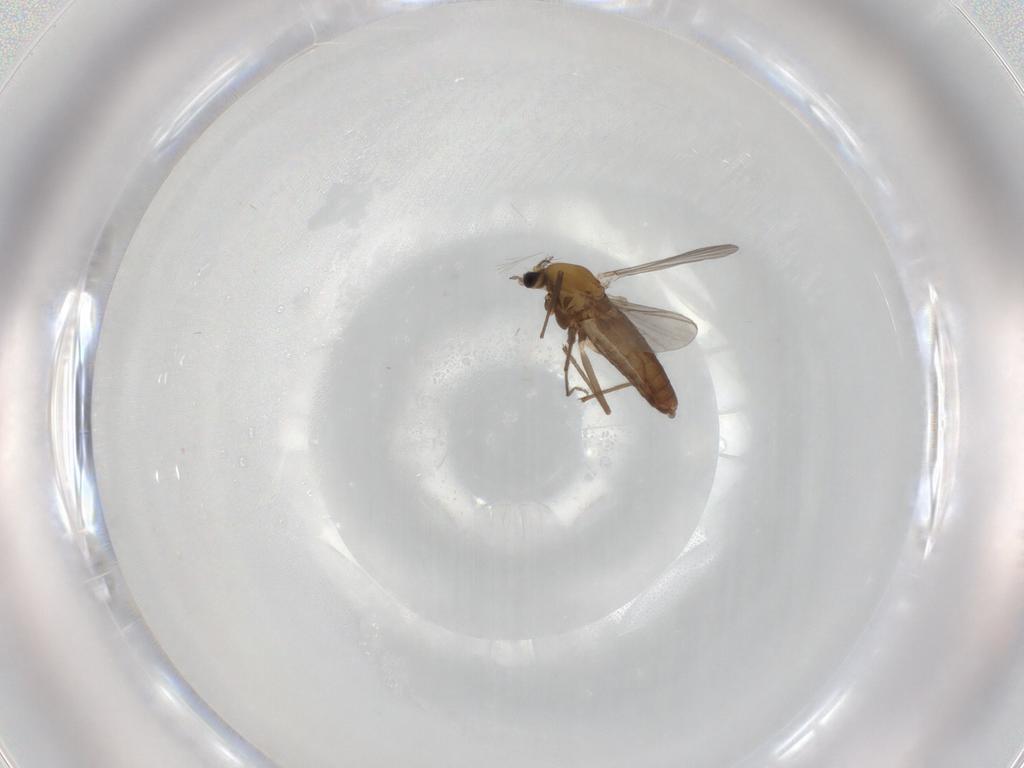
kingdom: Animalia
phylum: Arthropoda
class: Insecta
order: Diptera
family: Chironomidae
